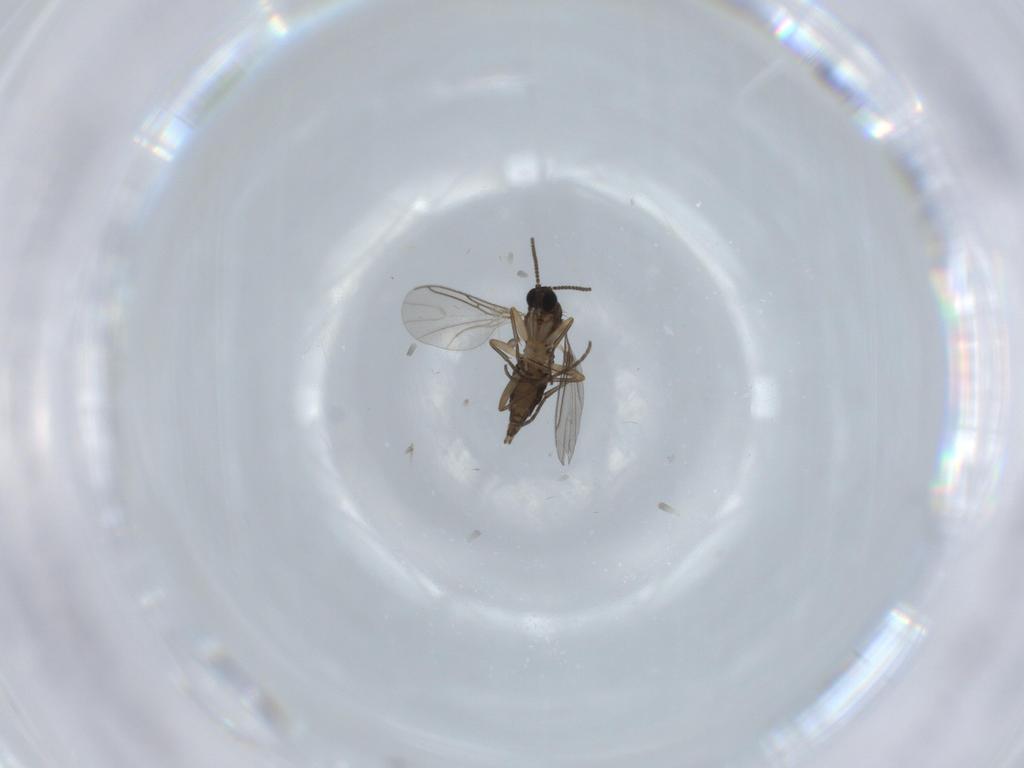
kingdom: Animalia
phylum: Arthropoda
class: Insecta
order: Diptera
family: Sciaridae
